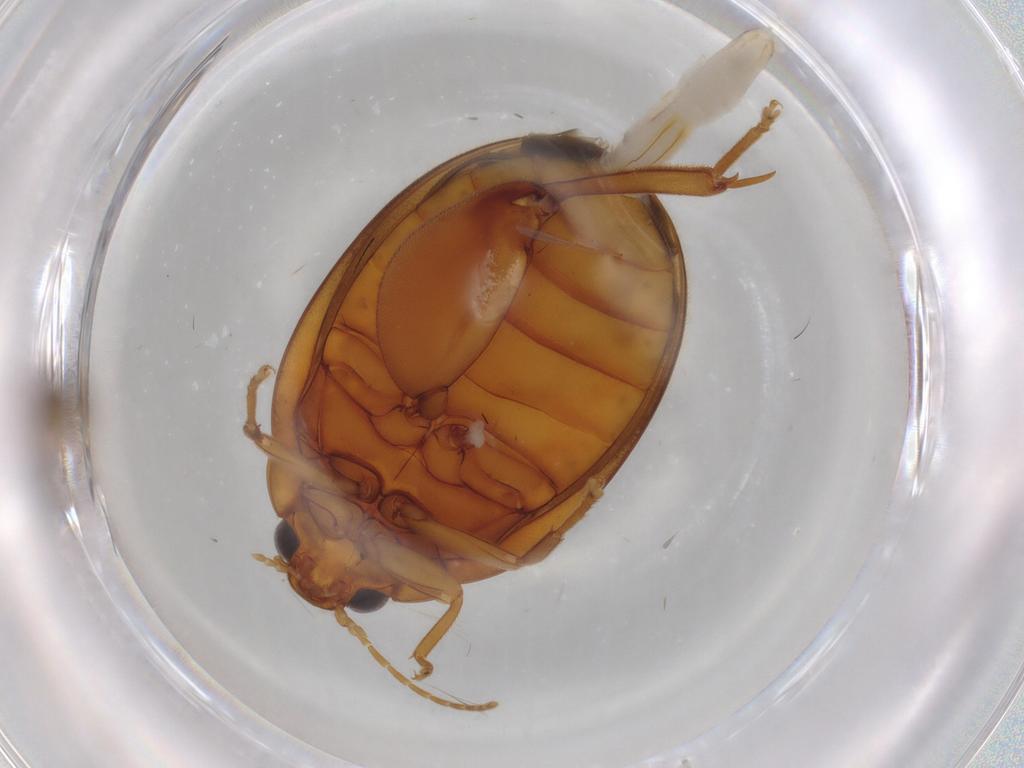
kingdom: Animalia
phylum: Arthropoda
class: Insecta
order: Coleoptera
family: Scirtidae
